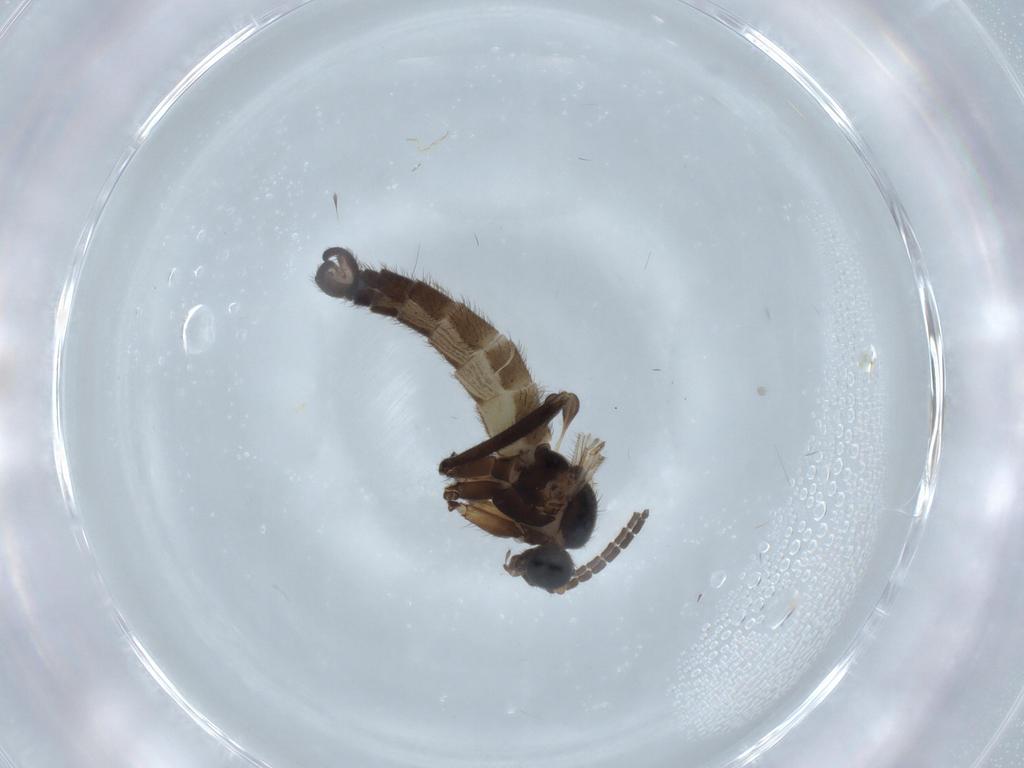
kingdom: Animalia
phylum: Arthropoda
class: Insecta
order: Diptera
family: Sciaridae
